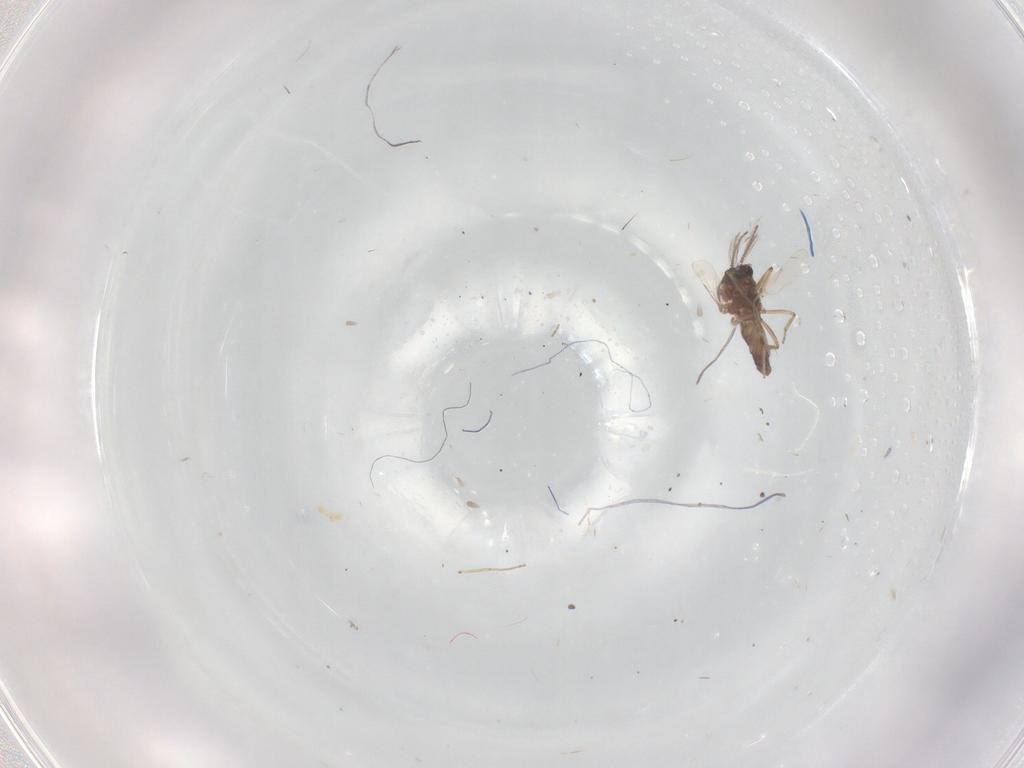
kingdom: Animalia
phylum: Arthropoda
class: Insecta
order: Diptera
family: Ceratopogonidae
